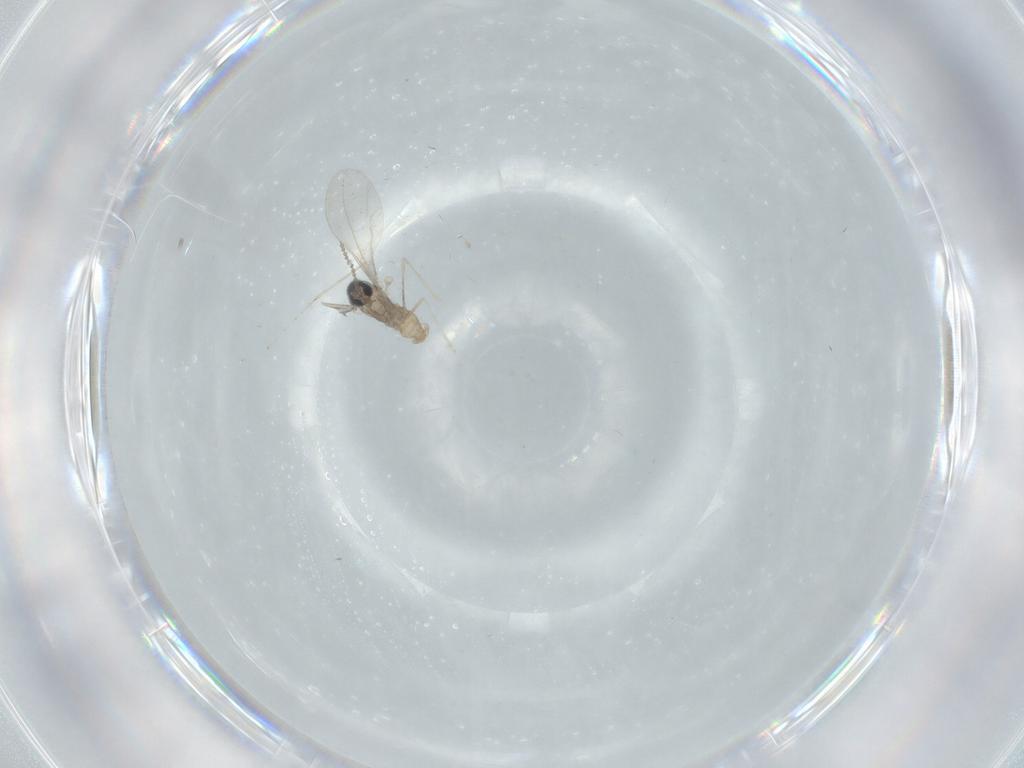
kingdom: Animalia
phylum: Arthropoda
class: Insecta
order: Diptera
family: Cecidomyiidae
